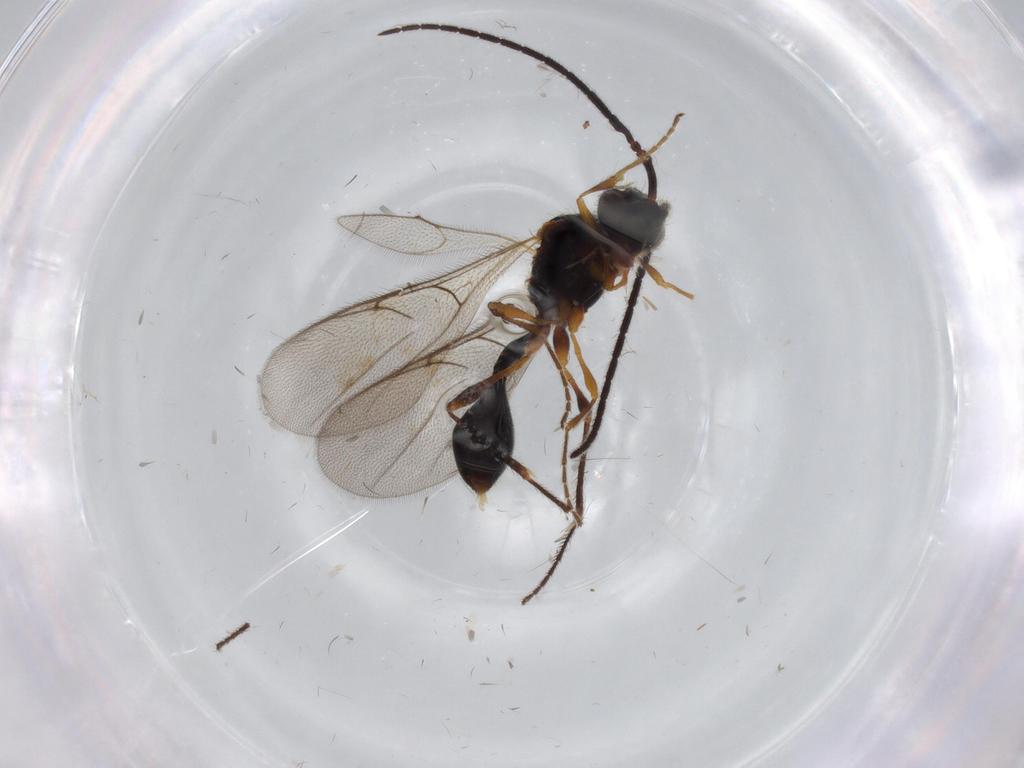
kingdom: Animalia
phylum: Arthropoda
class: Insecta
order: Hymenoptera
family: Diapriidae
